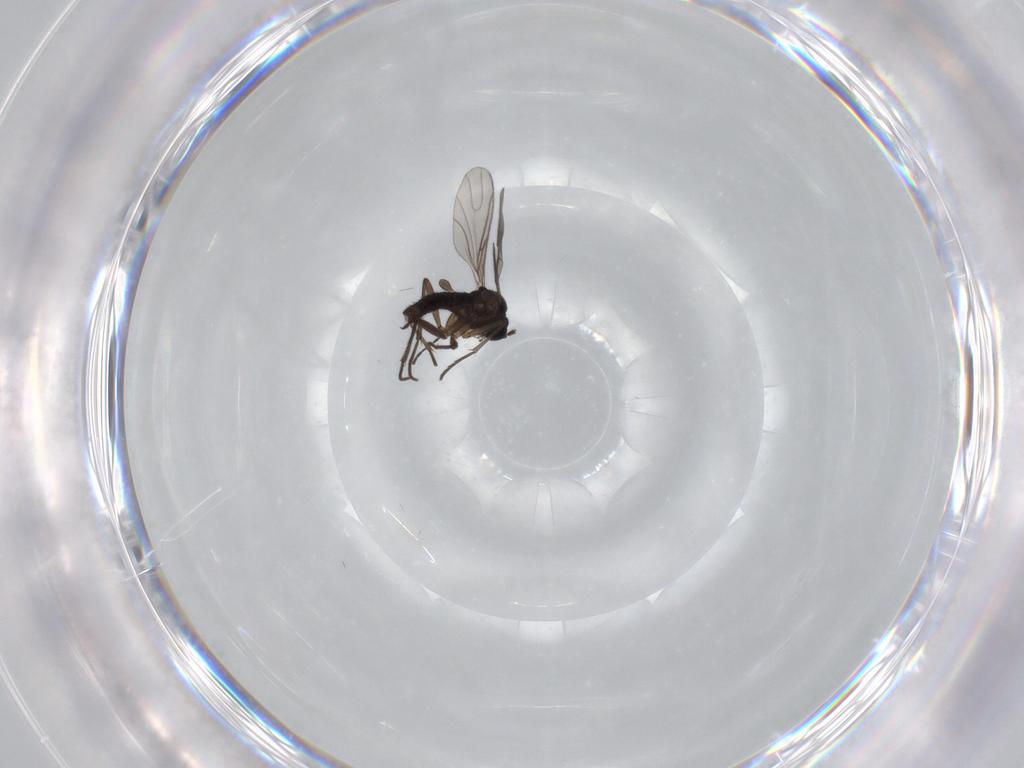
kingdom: Animalia
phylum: Arthropoda
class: Insecta
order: Diptera
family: Sciaridae
